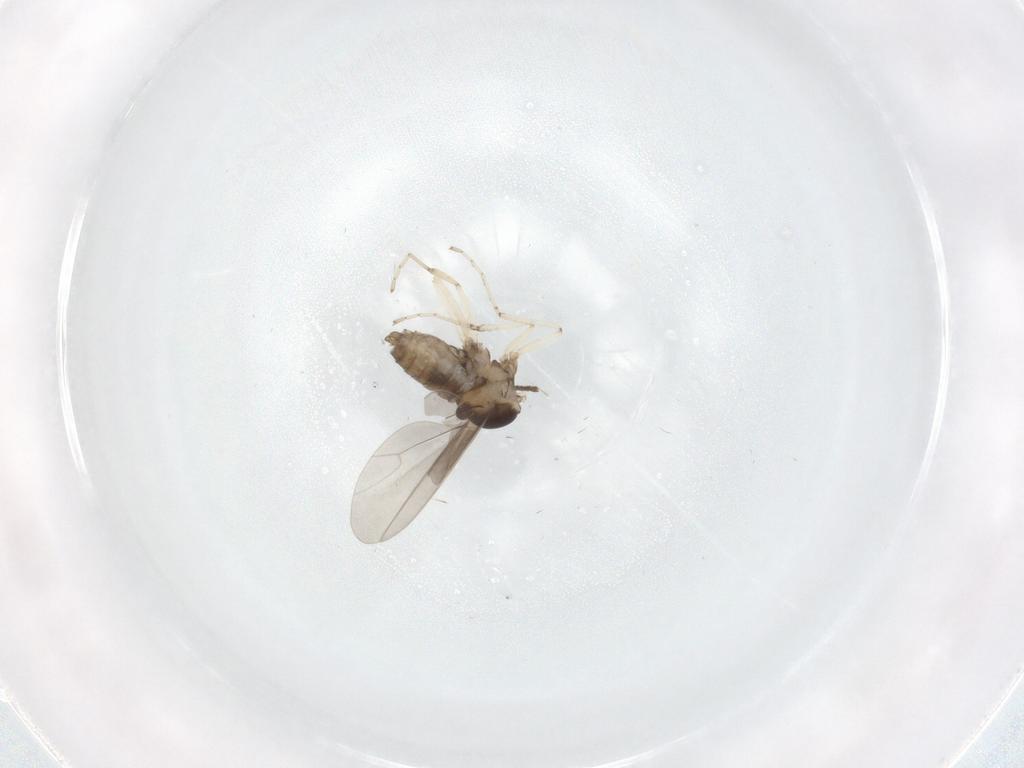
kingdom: Animalia
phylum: Arthropoda
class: Insecta
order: Diptera
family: Cecidomyiidae
